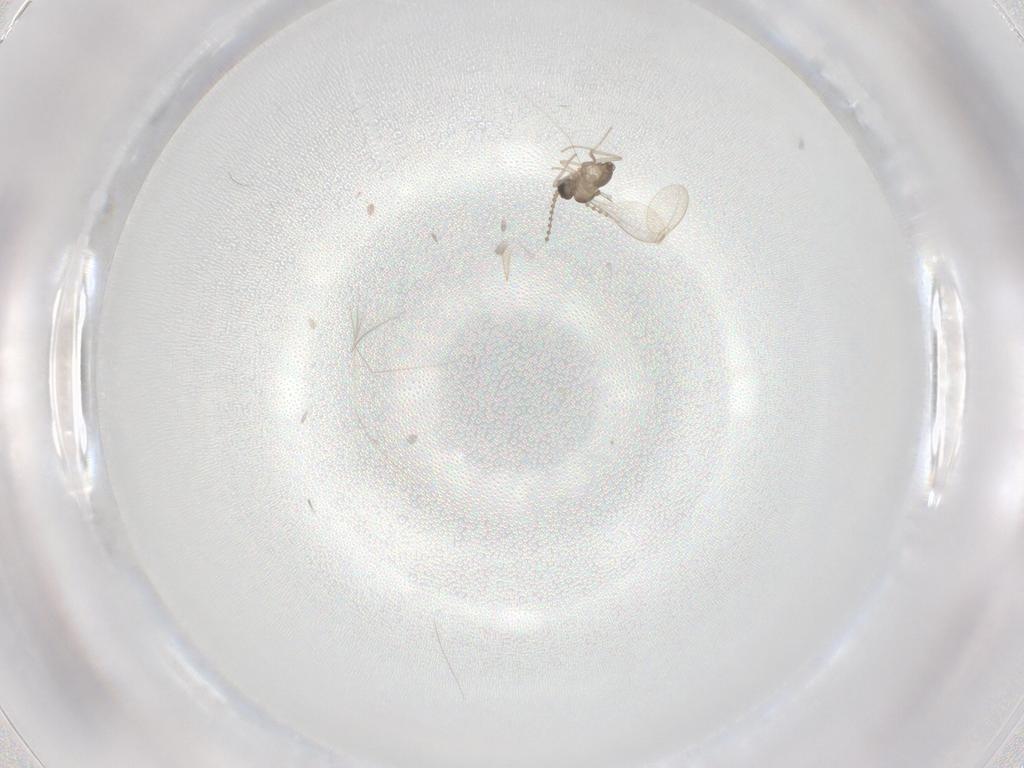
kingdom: Animalia
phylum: Arthropoda
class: Insecta
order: Diptera
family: Cecidomyiidae
